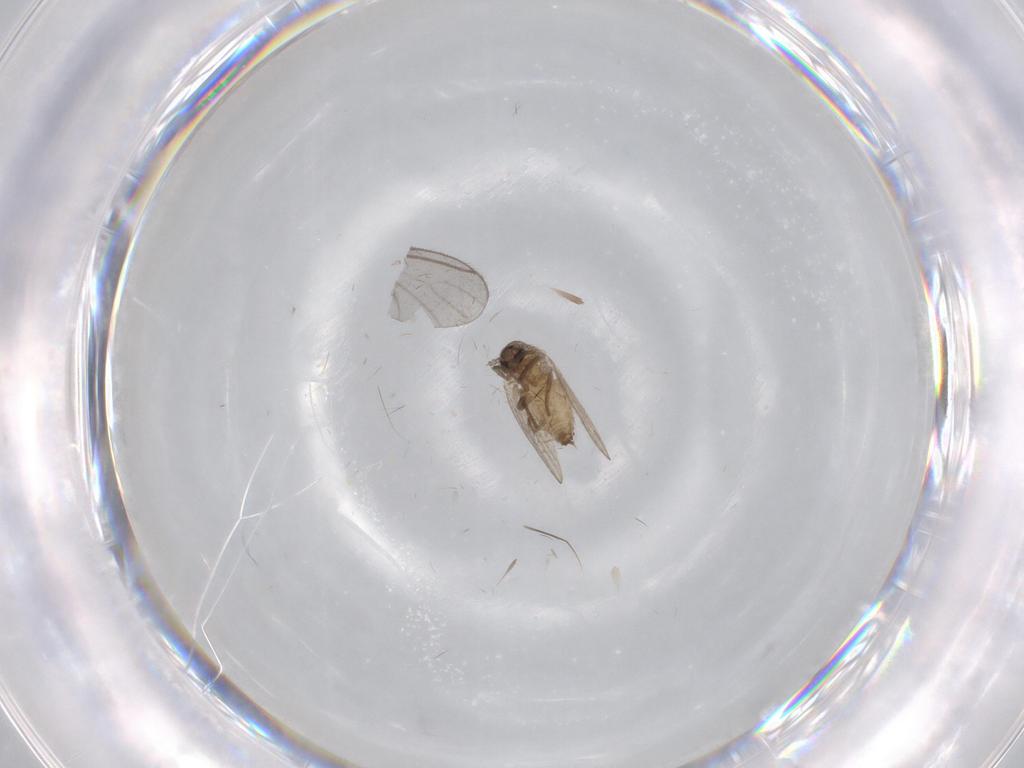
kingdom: Animalia
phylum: Arthropoda
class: Insecta
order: Diptera
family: Psychodidae
